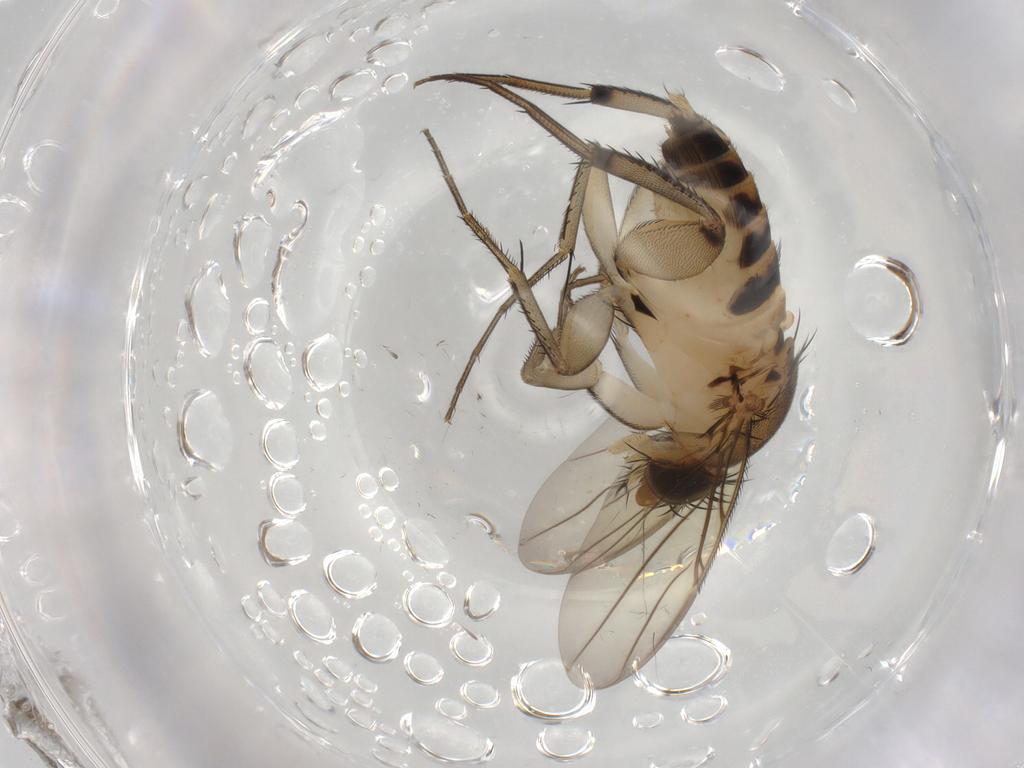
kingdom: Animalia
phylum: Arthropoda
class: Insecta
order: Diptera
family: Phoridae
